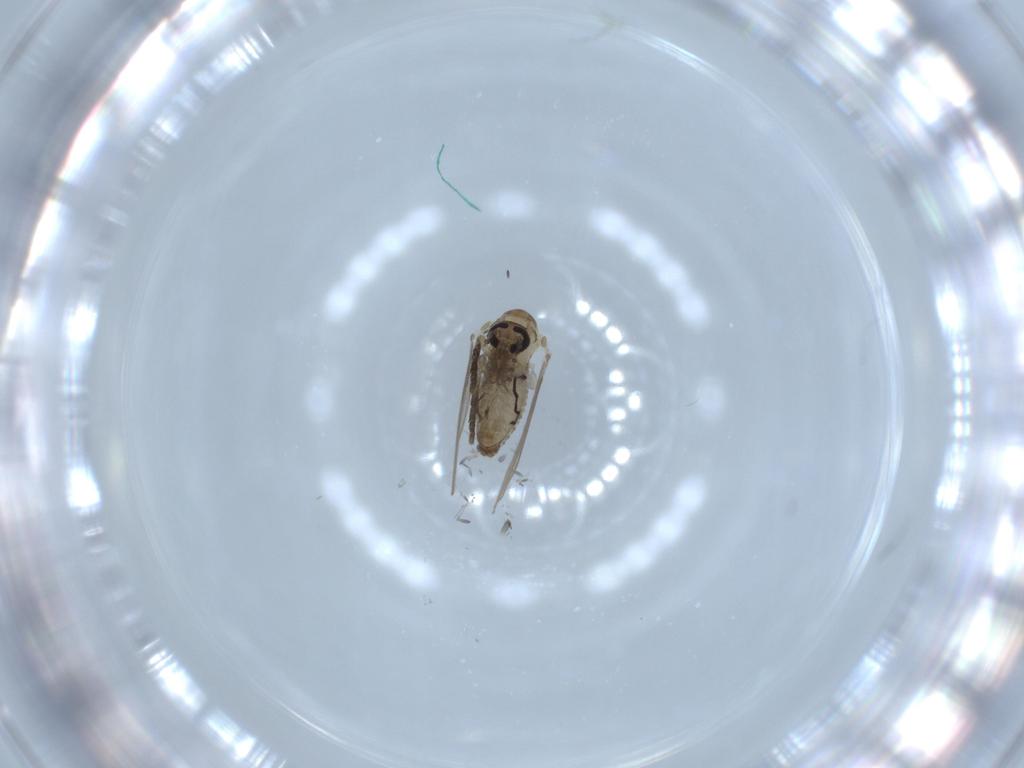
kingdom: Animalia
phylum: Arthropoda
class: Insecta
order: Diptera
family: Psychodidae
